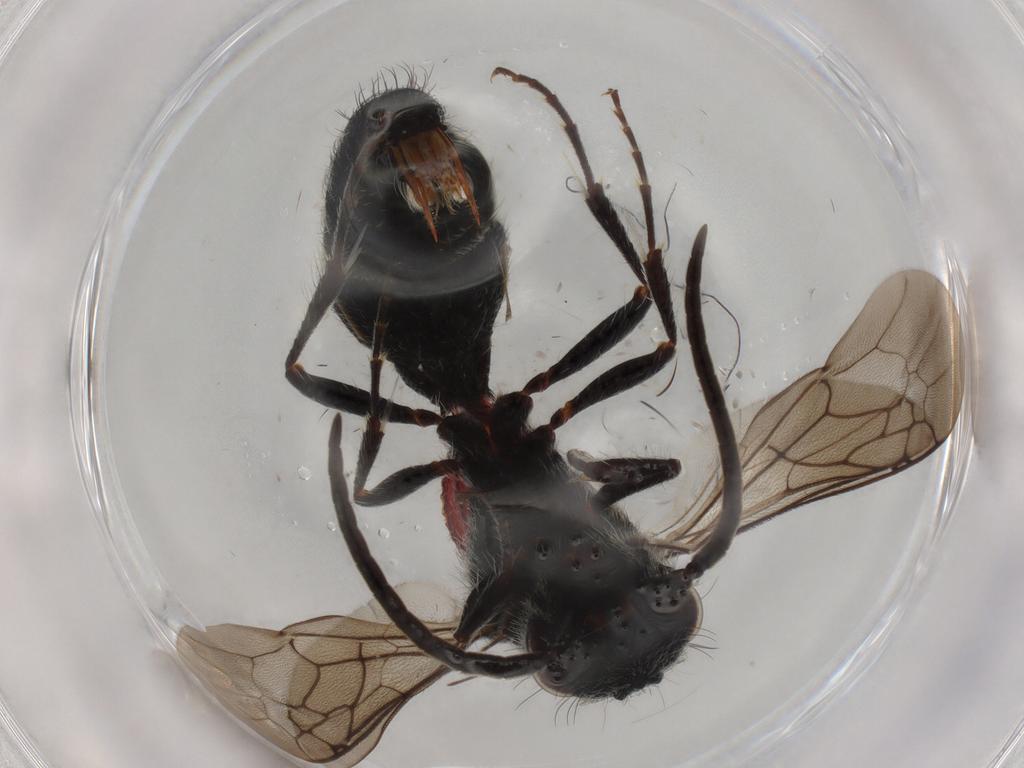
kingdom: Animalia
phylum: Arthropoda
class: Insecta
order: Hymenoptera
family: Mutillidae
